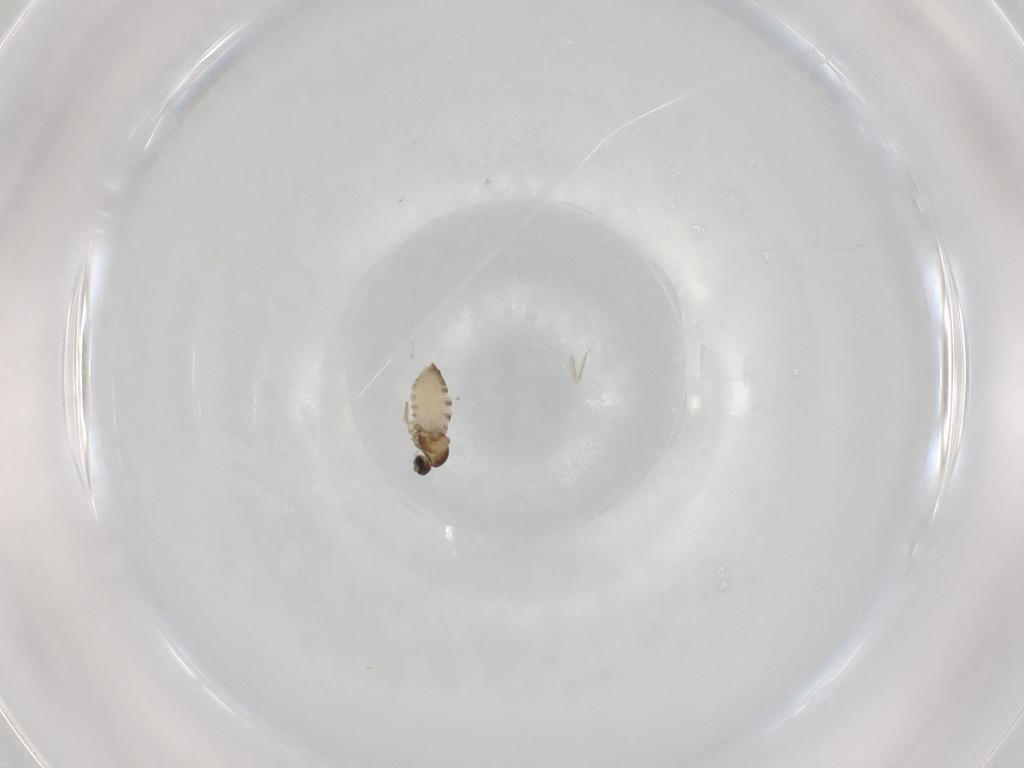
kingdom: Animalia
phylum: Arthropoda
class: Insecta
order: Diptera
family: Cecidomyiidae
